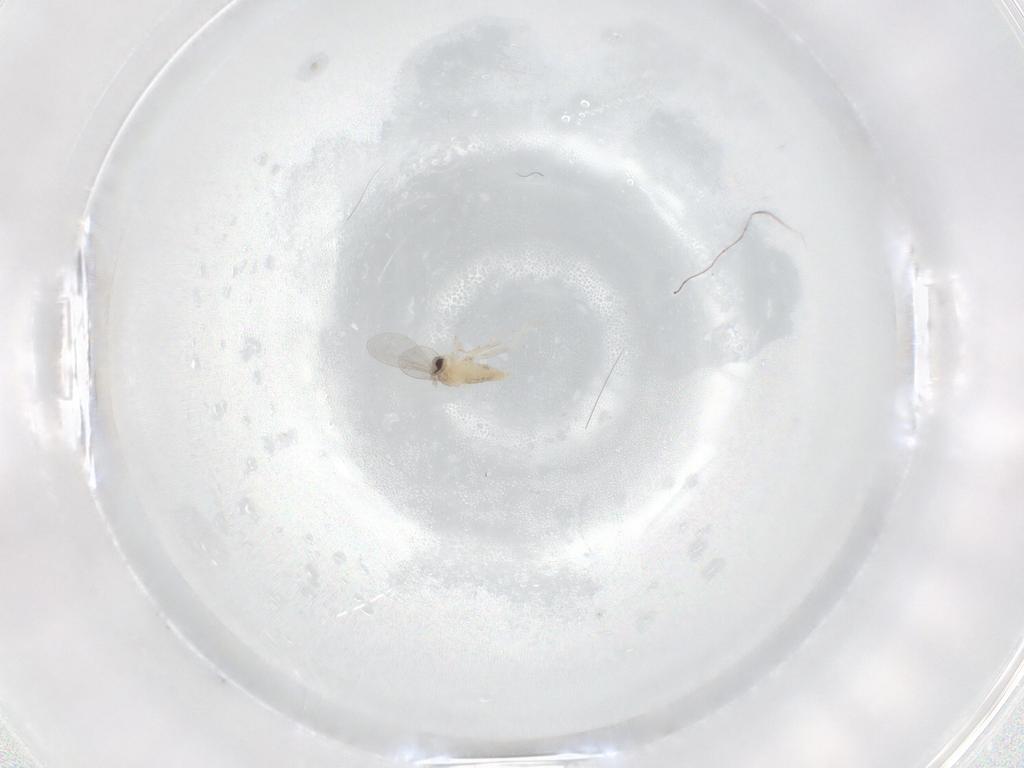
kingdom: Animalia
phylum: Arthropoda
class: Insecta
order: Diptera
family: Cecidomyiidae
